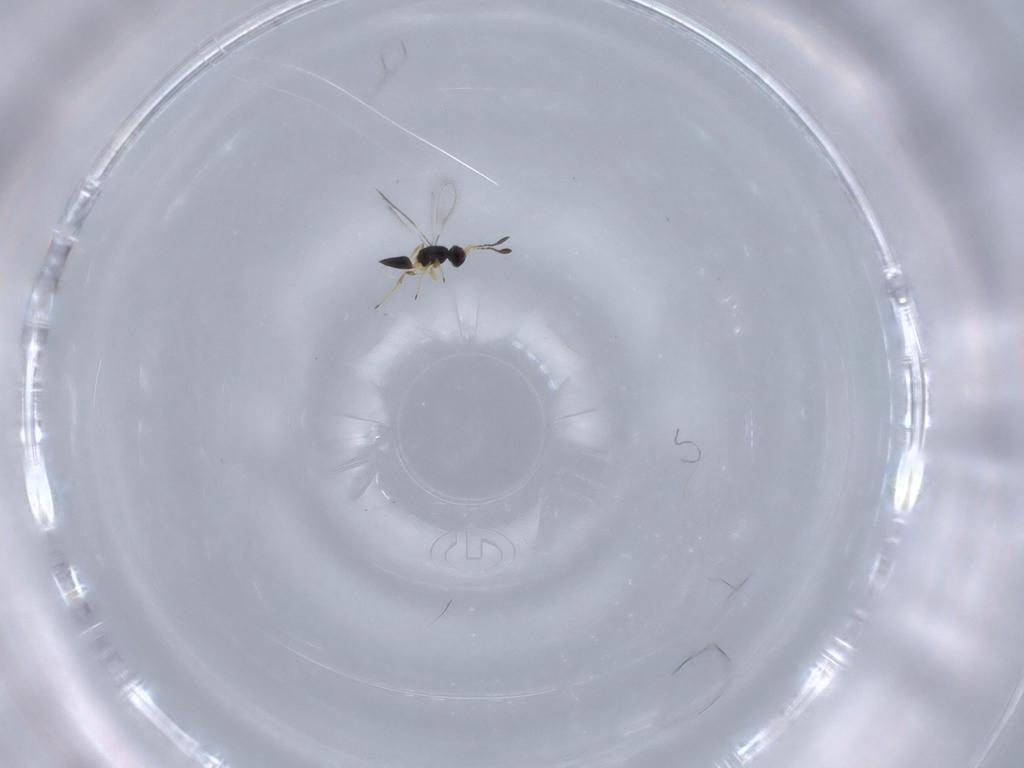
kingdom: Animalia
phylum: Arthropoda
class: Insecta
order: Hymenoptera
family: Mymaridae
